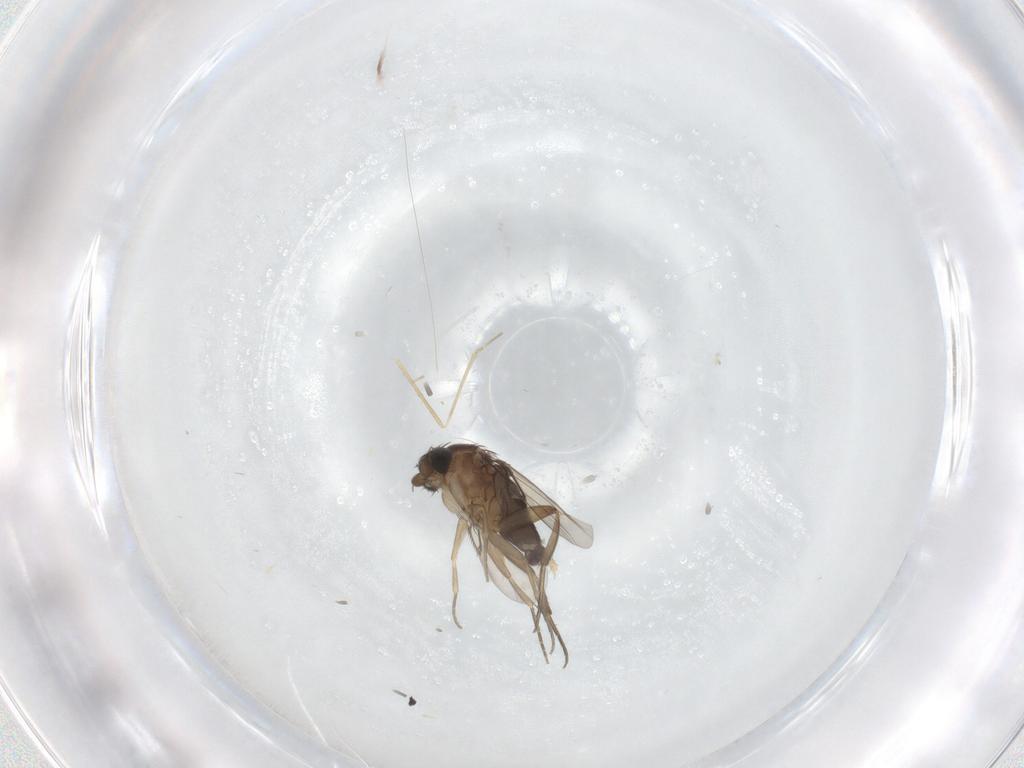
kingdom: Animalia
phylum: Arthropoda
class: Insecta
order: Diptera
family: Phoridae
